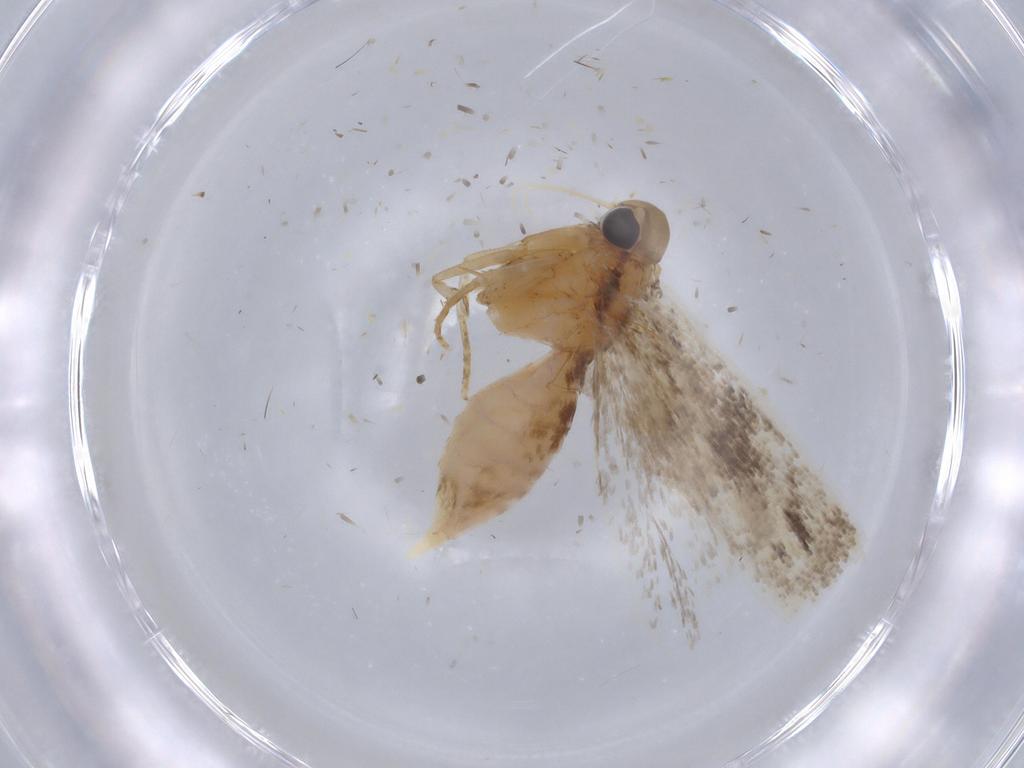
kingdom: Animalia
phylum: Arthropoda
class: Insecta
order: Lepidoptera
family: Gelechiidae
